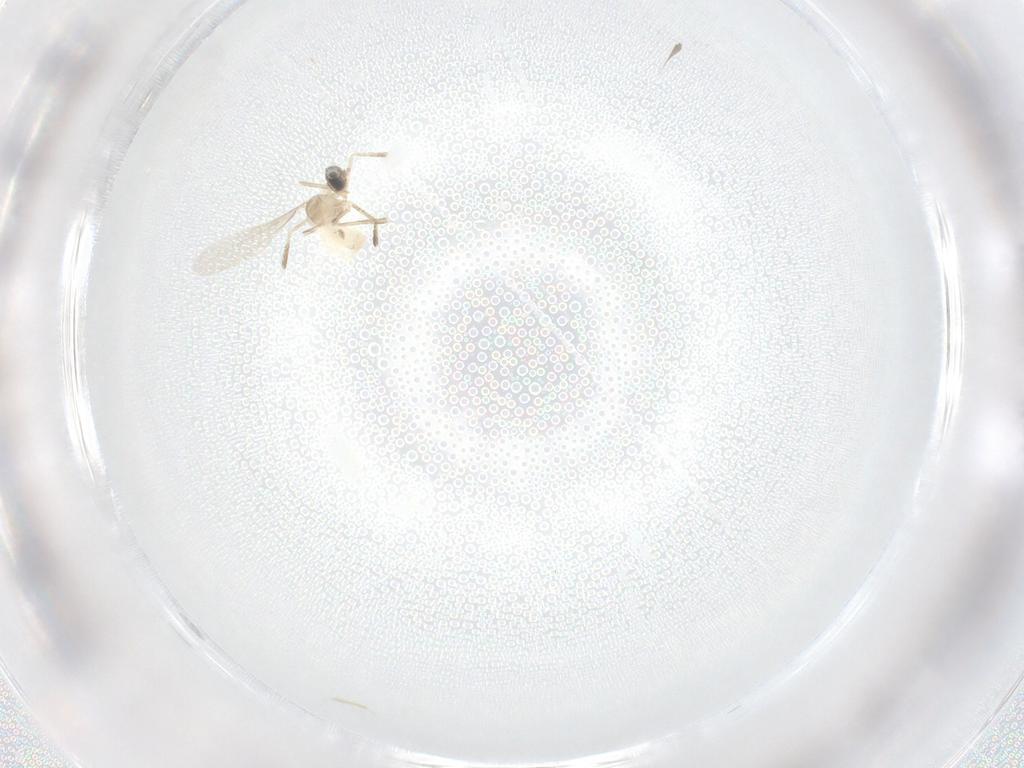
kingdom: Animalia
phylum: Arthropoda
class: Insecta
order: Diptera
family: Cecidomyiidae
